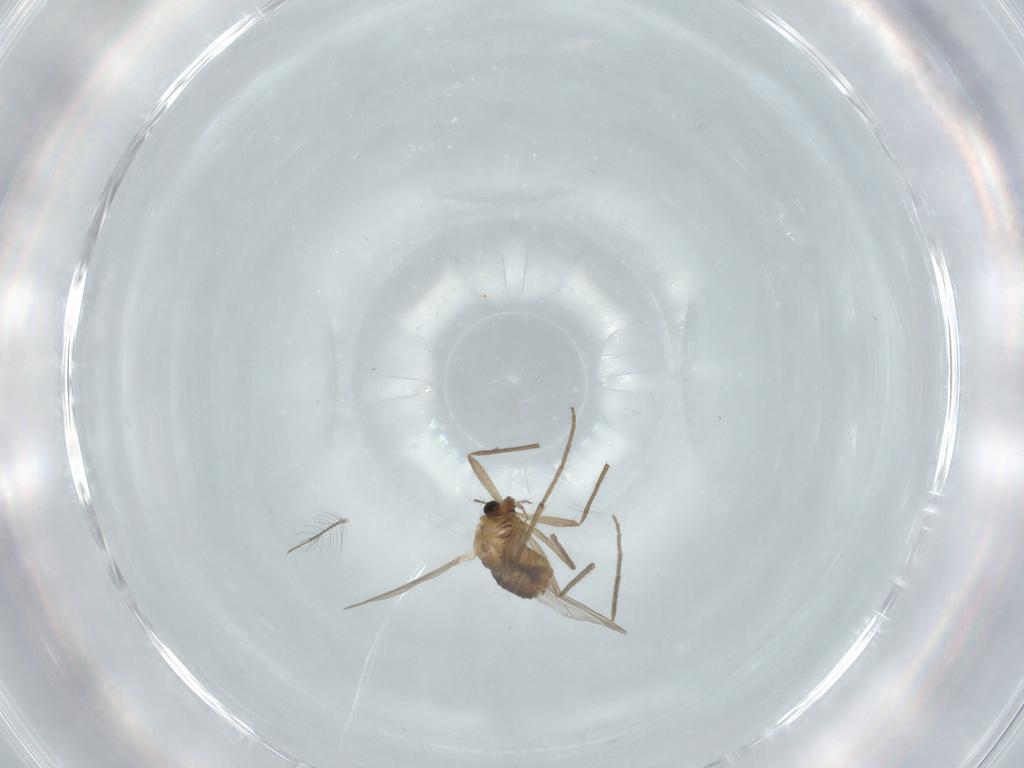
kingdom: Animalia
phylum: Arthropoda
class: Insecta
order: Diptera
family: Chironomidae
